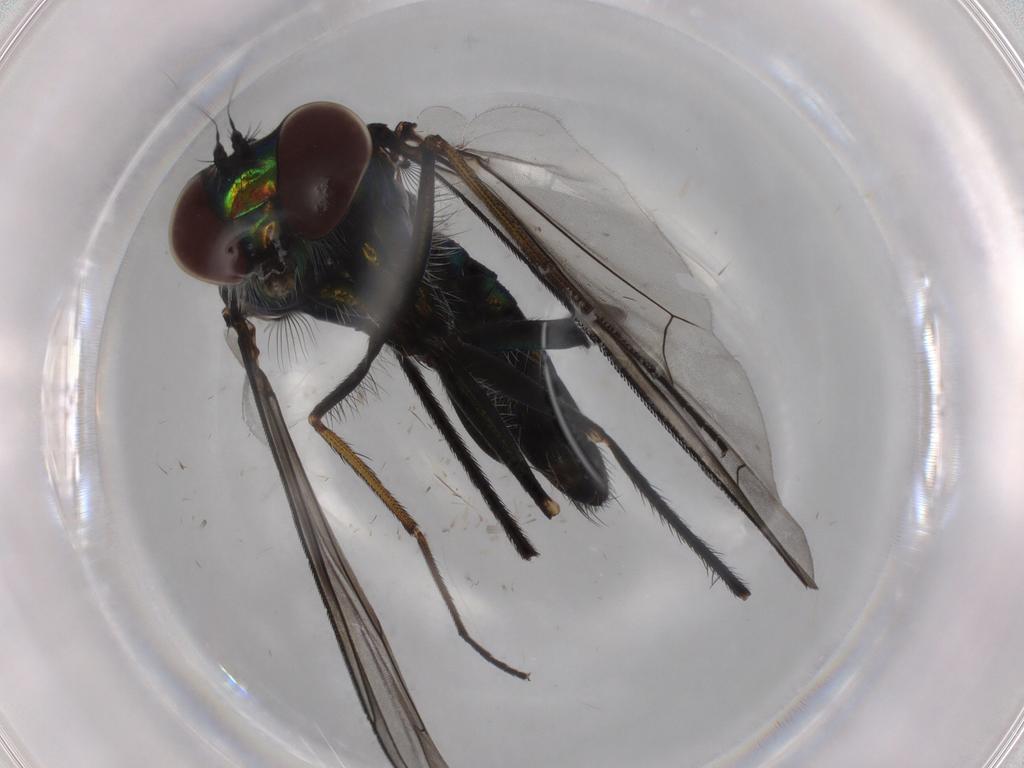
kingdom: Animalia
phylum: Arthropoda
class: Insecta
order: Diptera
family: Dolichopodidae
